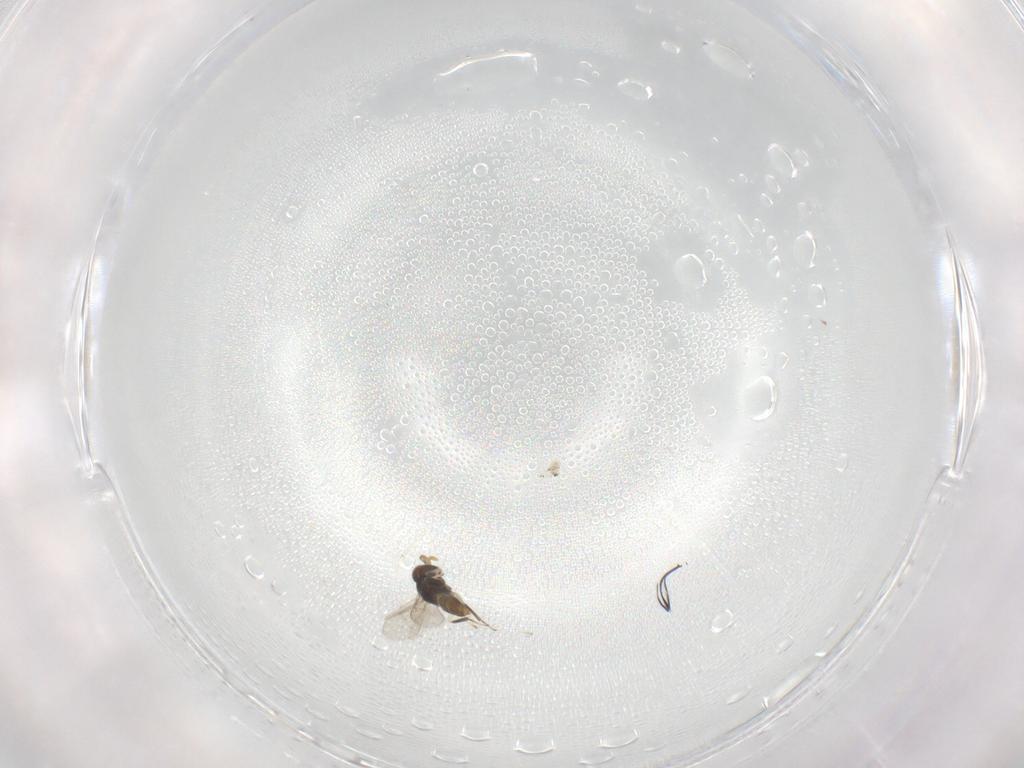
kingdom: Animalia
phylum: Arthropoda
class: Insecta
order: Hymenoptera
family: Aphelinidae
